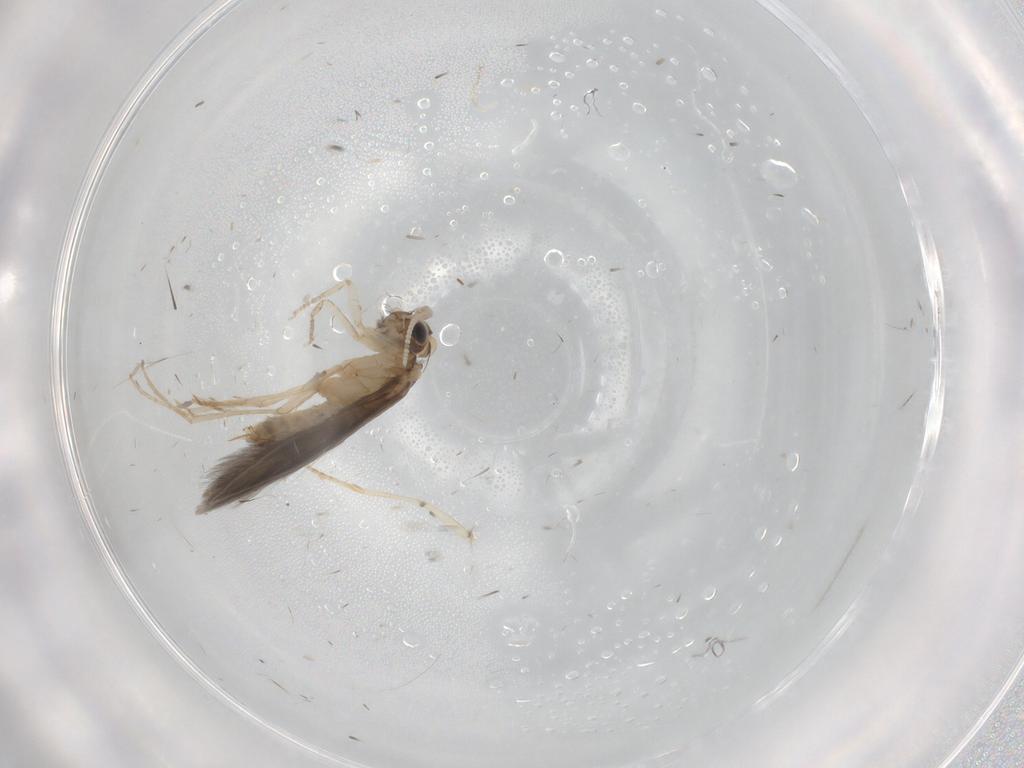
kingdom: Animalia
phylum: Arthropoda
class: Insecta
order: Trichoptera
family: Hydroptilidae
